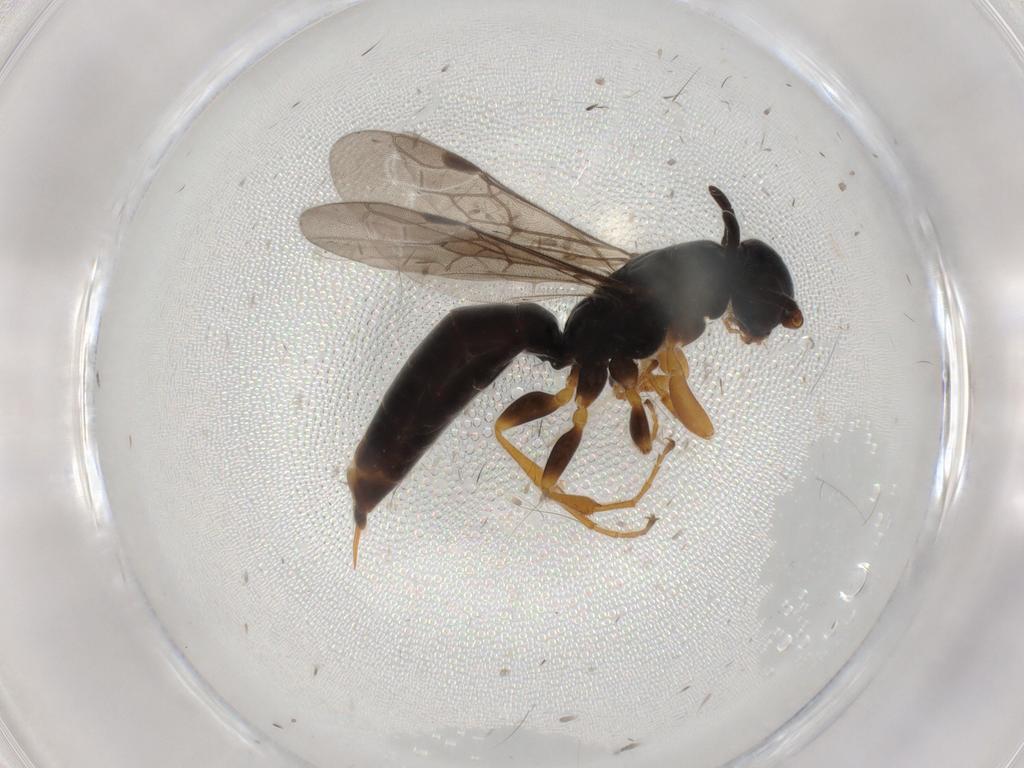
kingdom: Animalia
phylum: Arthropoda
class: Insecta
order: Hymenoptera
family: Sierolomorphidae
